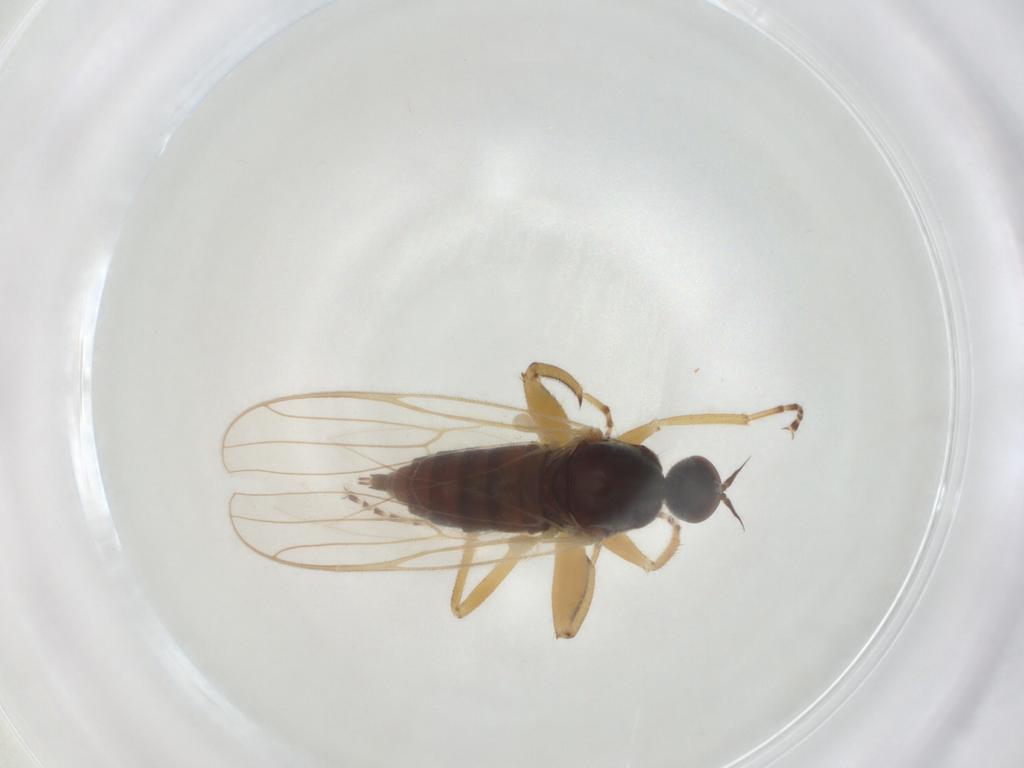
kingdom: Animalia
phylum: Arthropoda
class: Insecta
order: Diptera
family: Chironomidae
